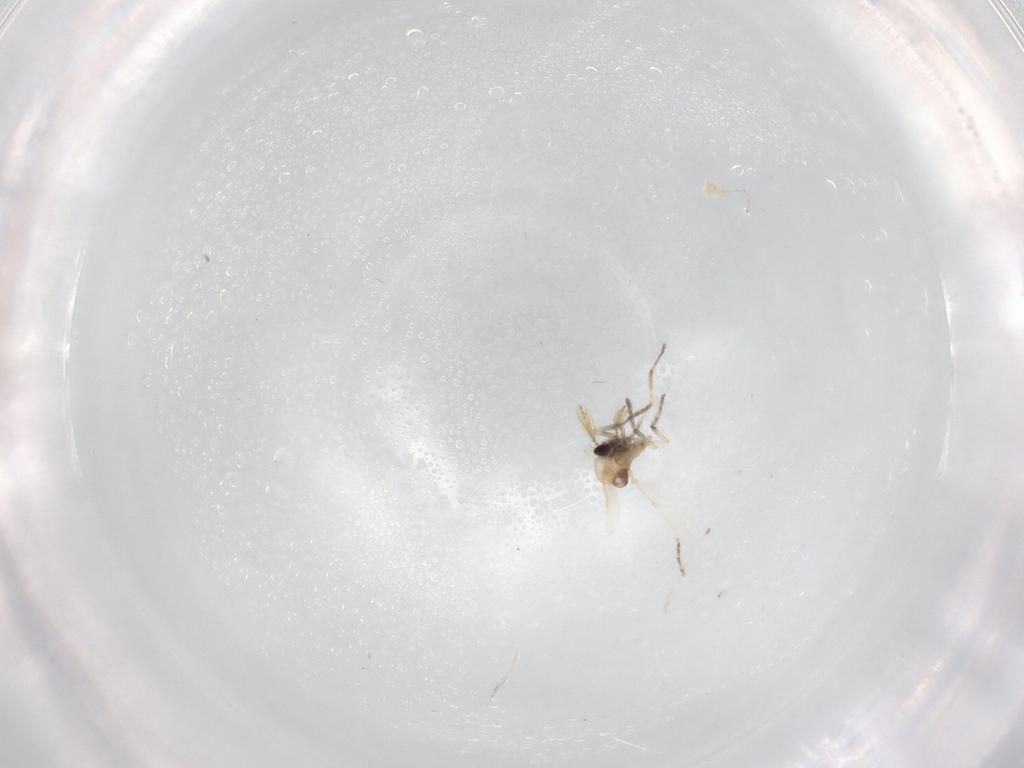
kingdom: Animalia
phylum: Arthropoda
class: Insecta
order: Diptera
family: Ceratopogonidae
